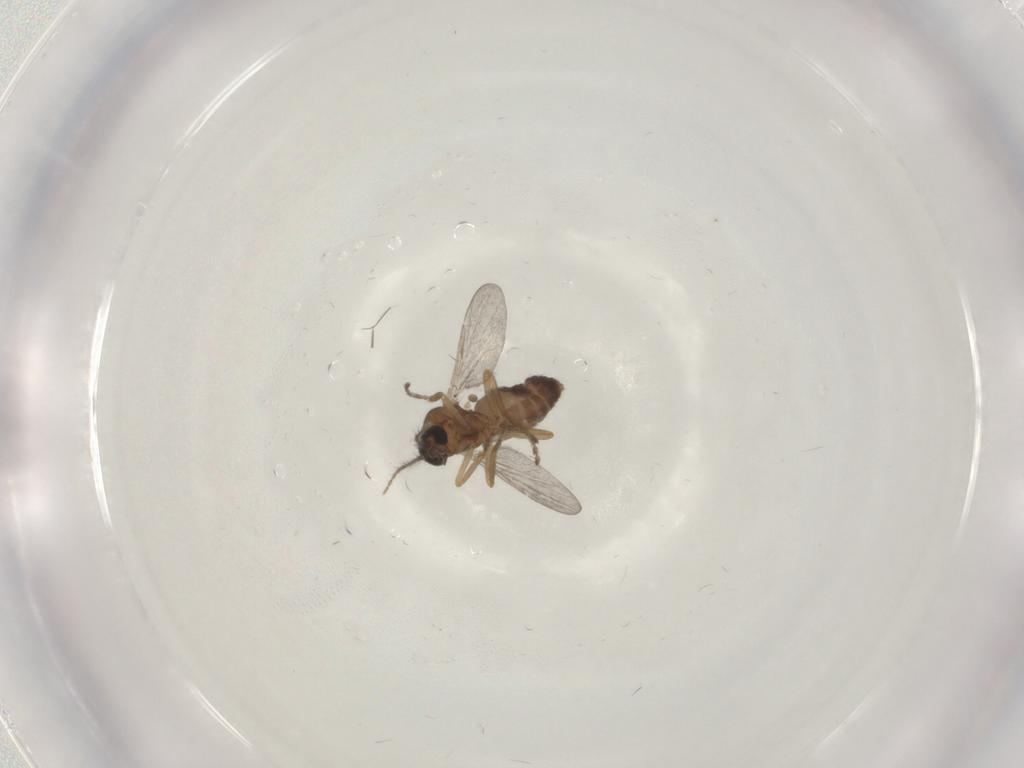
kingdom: Animalia
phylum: Arthropoda
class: Insecta
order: Diptera
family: Ceratopogonidae
